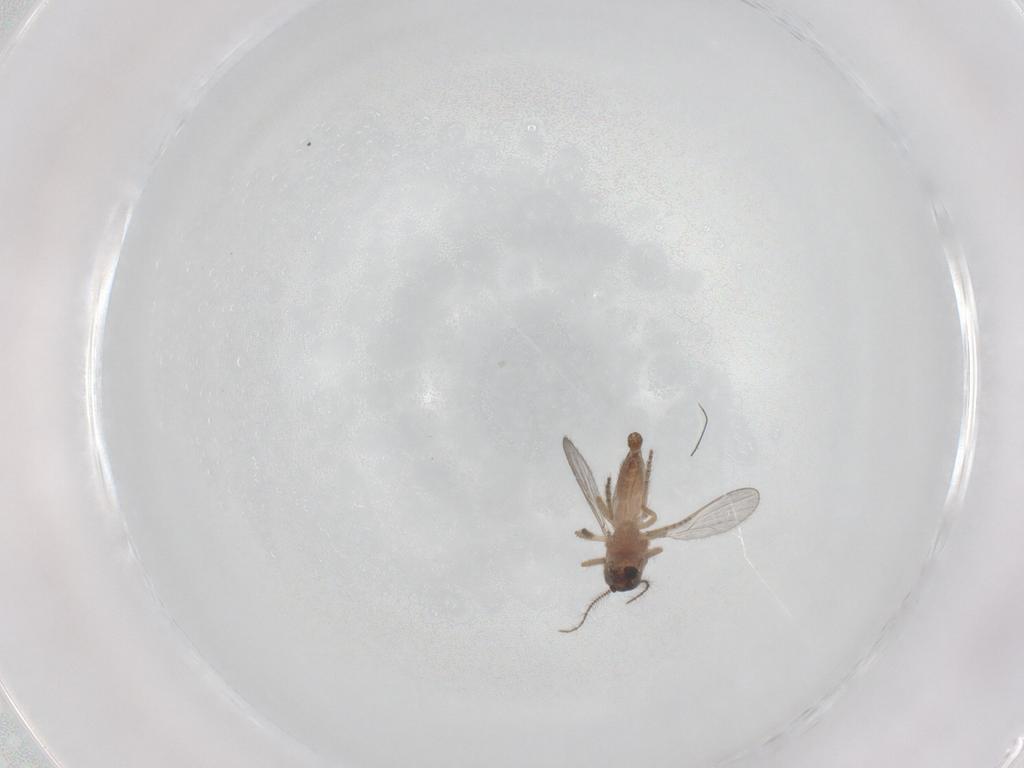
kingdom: Animalia
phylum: Arthropoda
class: Insecta
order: Diptera
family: Ceratopogonidae
